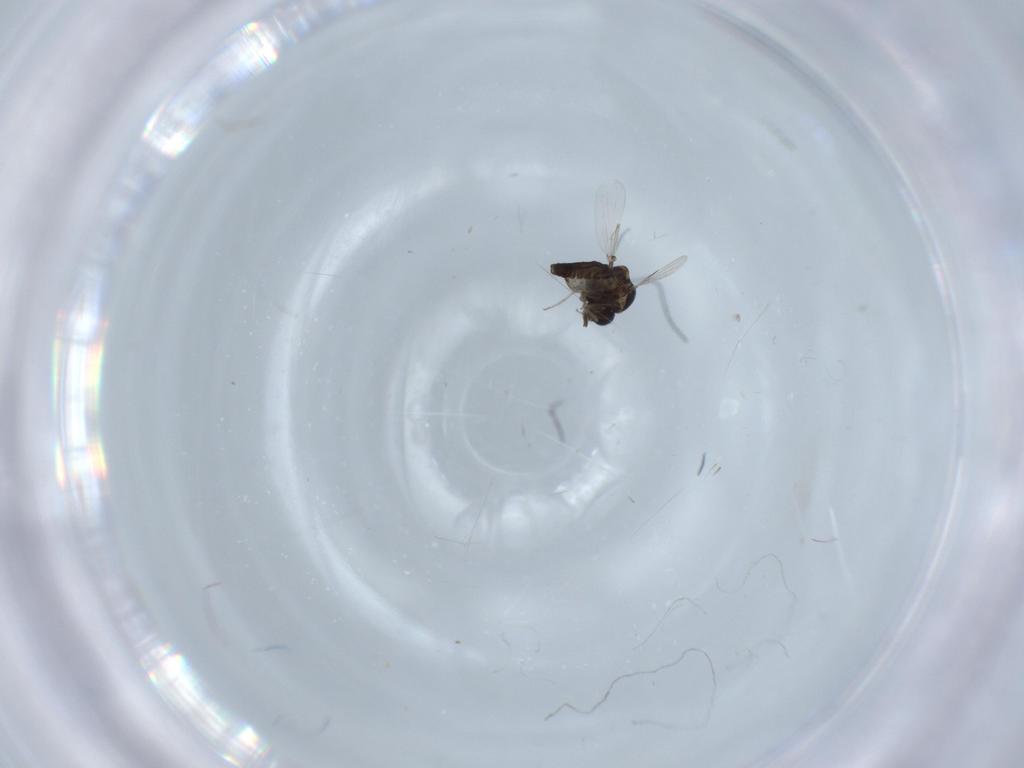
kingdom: Animalia
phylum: Arthropoda
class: Insecta
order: Diptera
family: Ceratopogonidae
